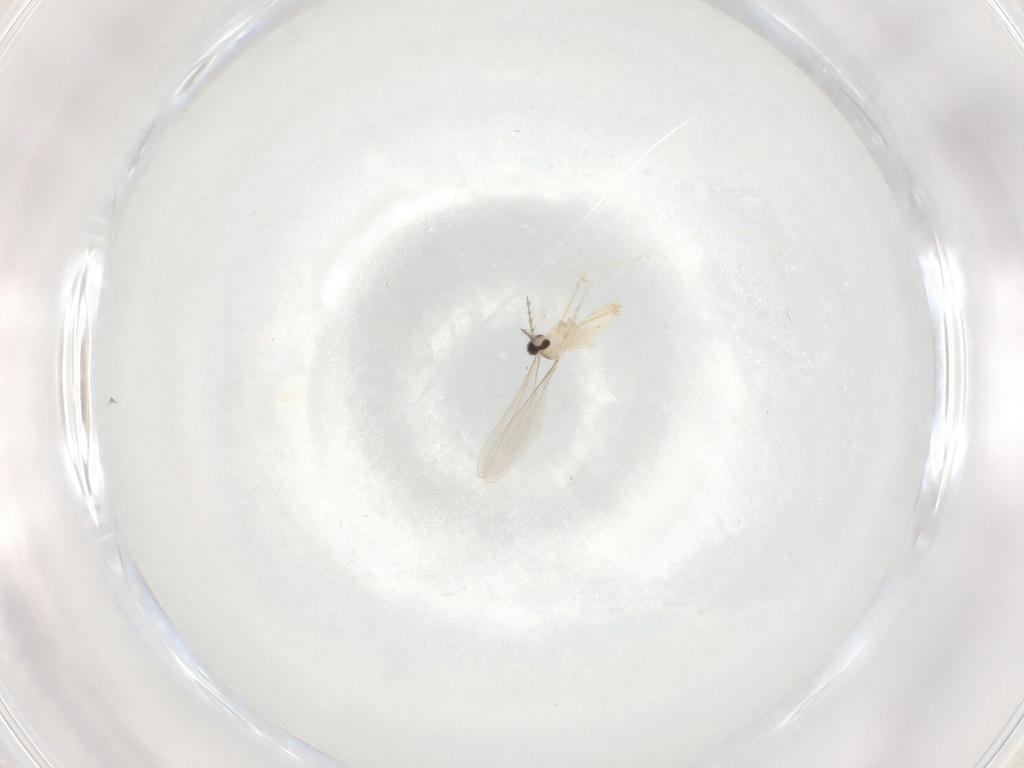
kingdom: Animalia
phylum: Arthropoda
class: Insecta
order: Diptera
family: Cecidomyiidae
